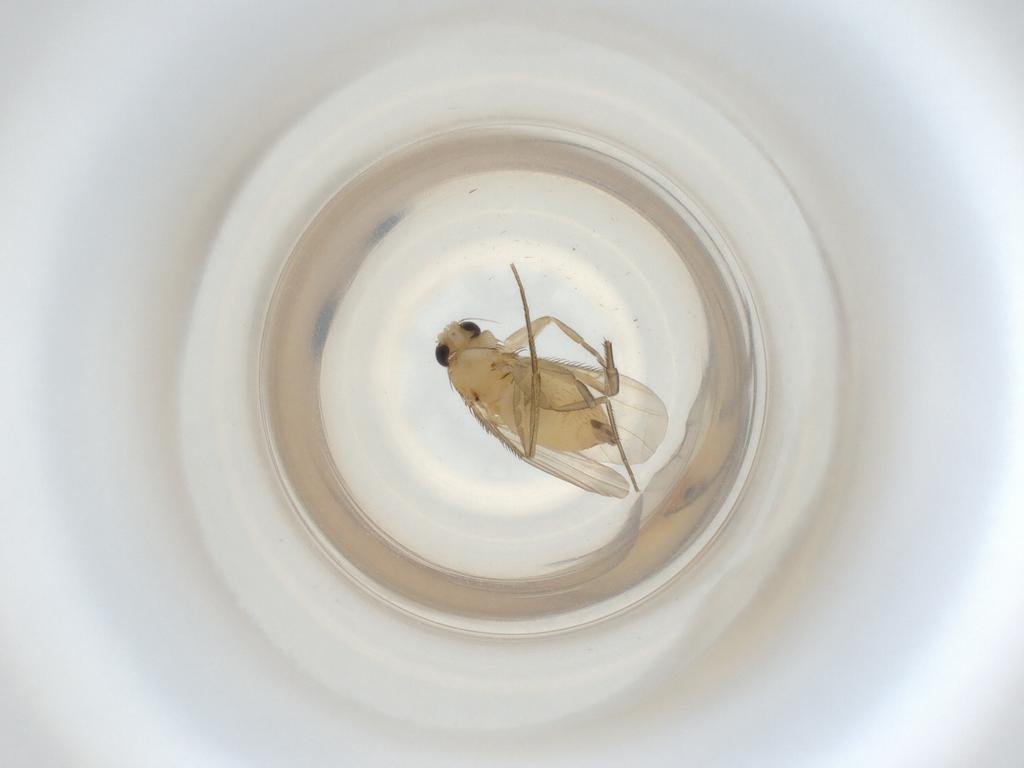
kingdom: Animalia
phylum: Arthropoda
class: Insecta
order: Diptera
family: Phoridae
